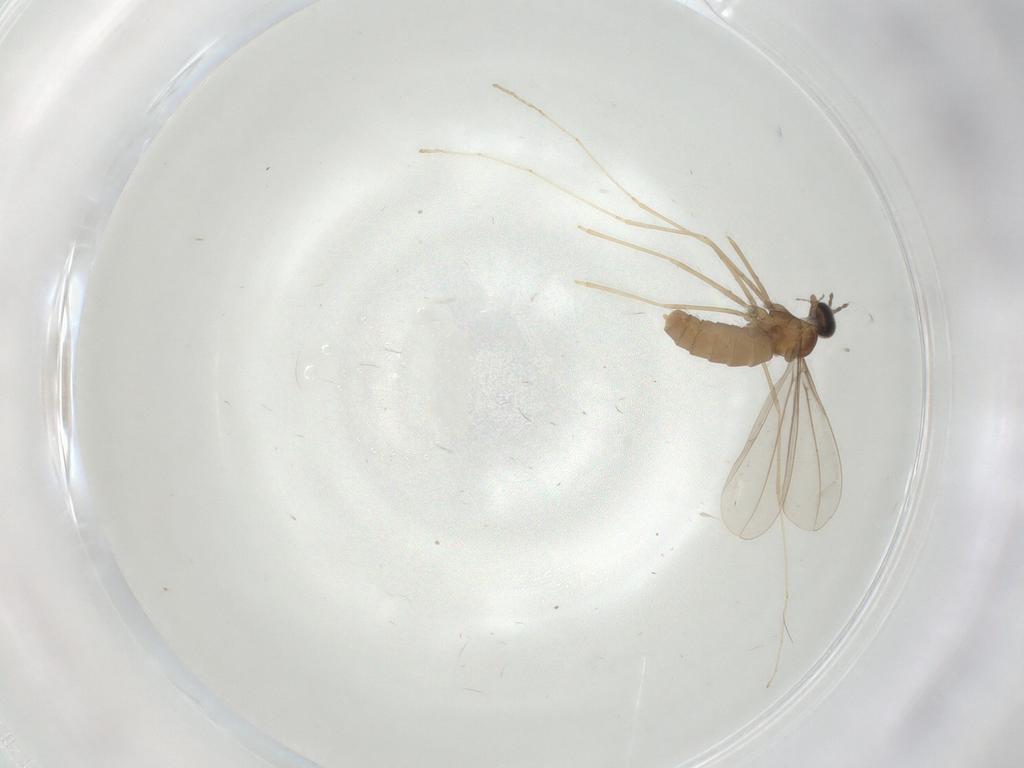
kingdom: Animalia
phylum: Arthropoda
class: Insecta
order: Diptera
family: Cecidomyiidae
